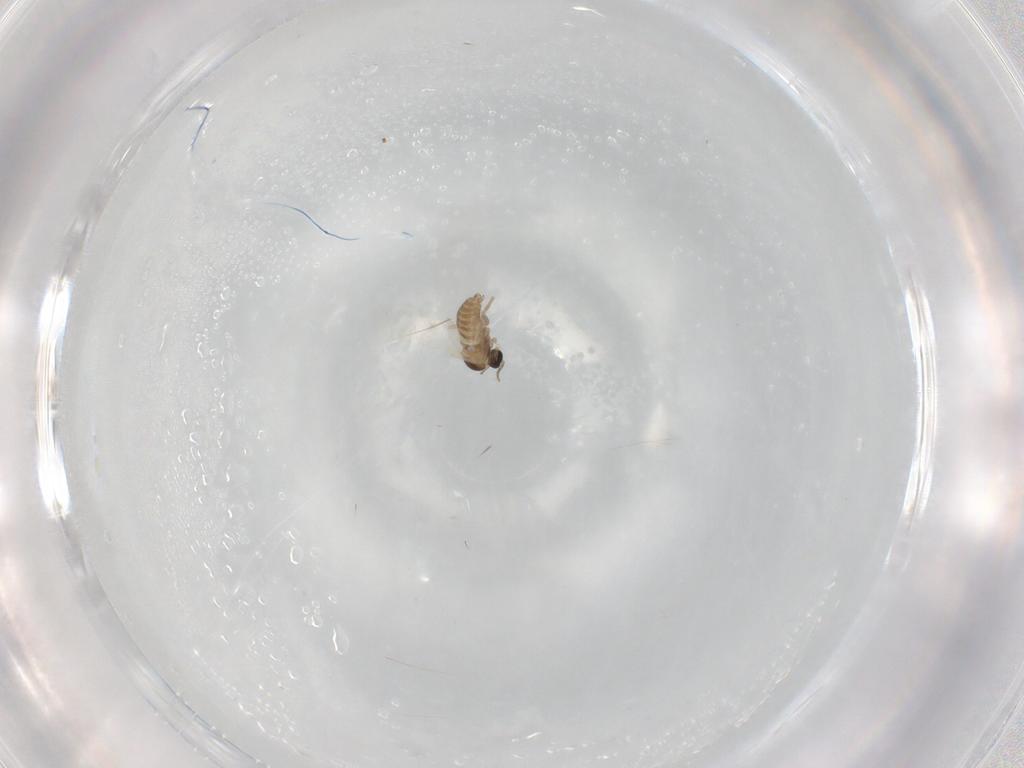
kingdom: Animalia
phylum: Arthropoda
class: Insecta
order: Diptera
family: Cecidomyiidae
